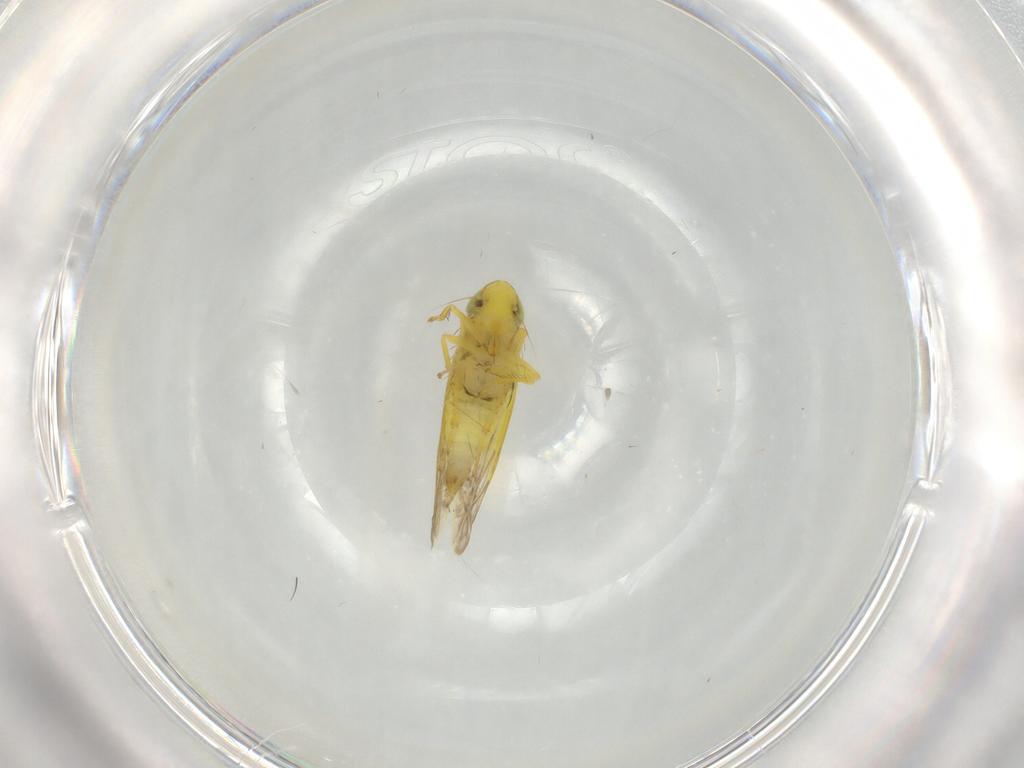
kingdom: Animalia
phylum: Arthropoda
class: Insecta
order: Hemiptera
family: Cicadellidae
